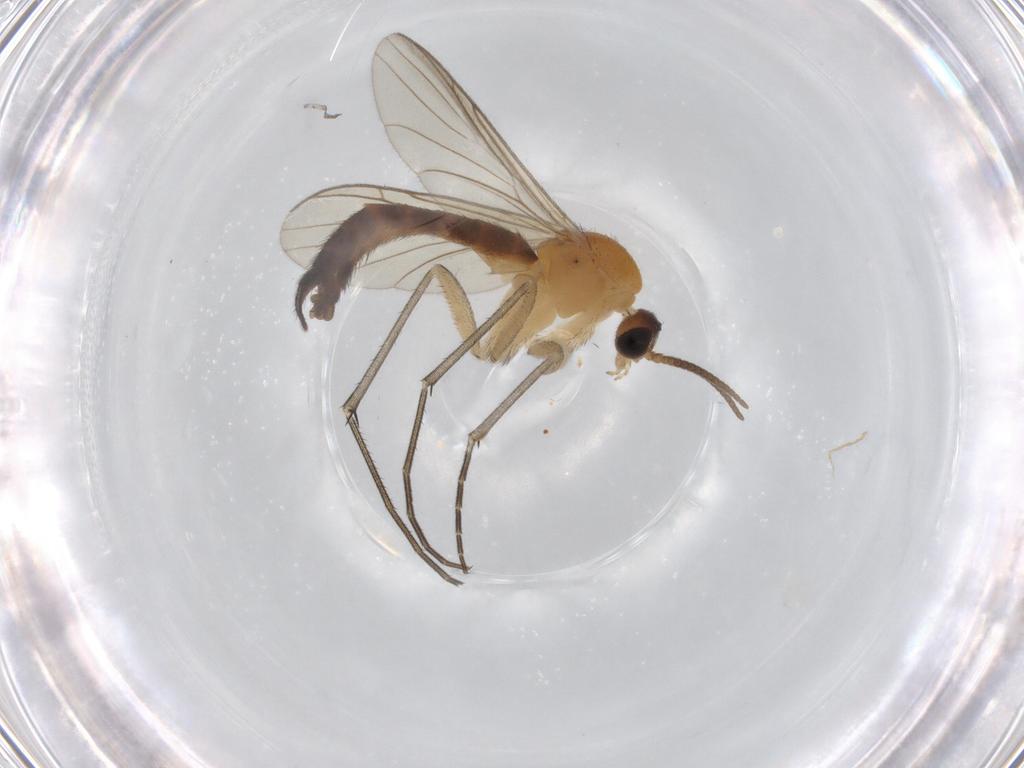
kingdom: Animalia
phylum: Arthropoda
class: Insecta
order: Diptera
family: Keroplatidae
